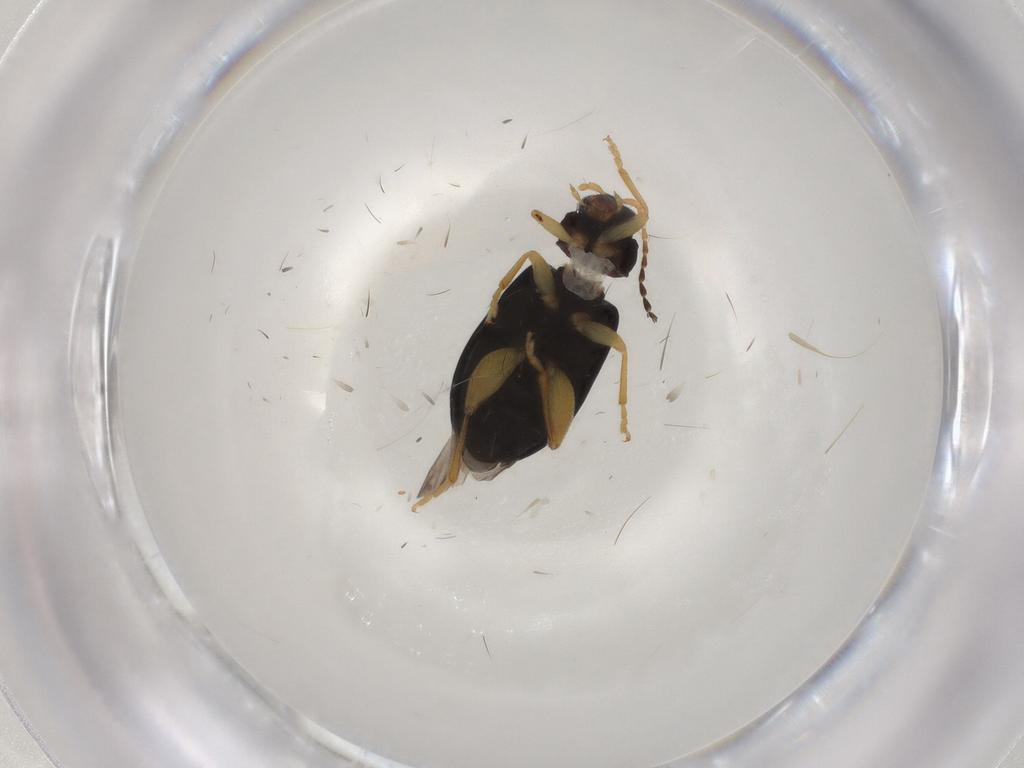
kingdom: Animalia
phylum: Arthropoda
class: Insecta
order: Coleoptera
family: Chrysomelidae
